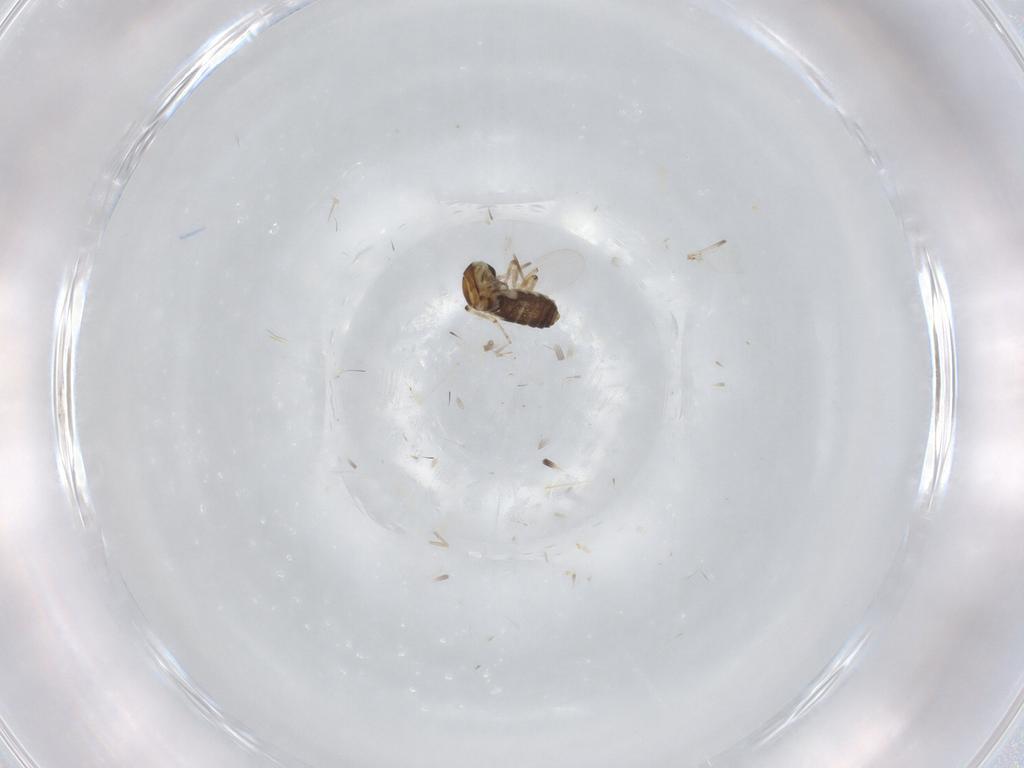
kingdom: Animalia
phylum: Arthropoda
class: Insecta
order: Diptera
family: Ceratopogonidae
